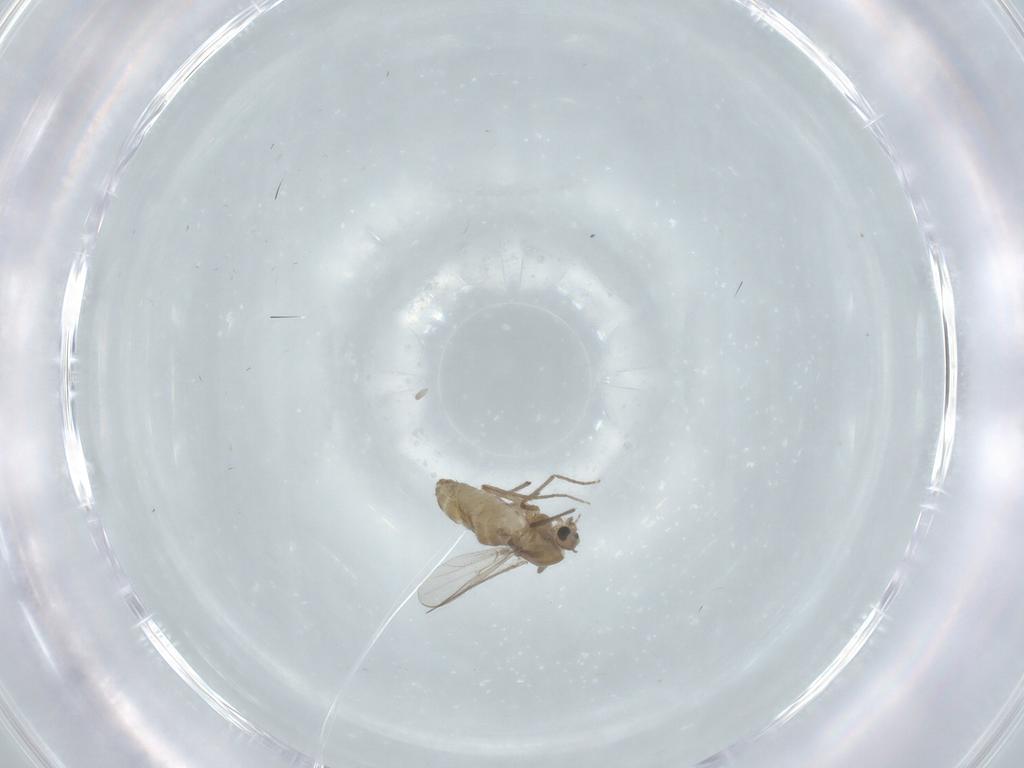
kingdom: Animalia
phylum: Arthropoda
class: Insecta
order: Diptera
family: Chironomidae
